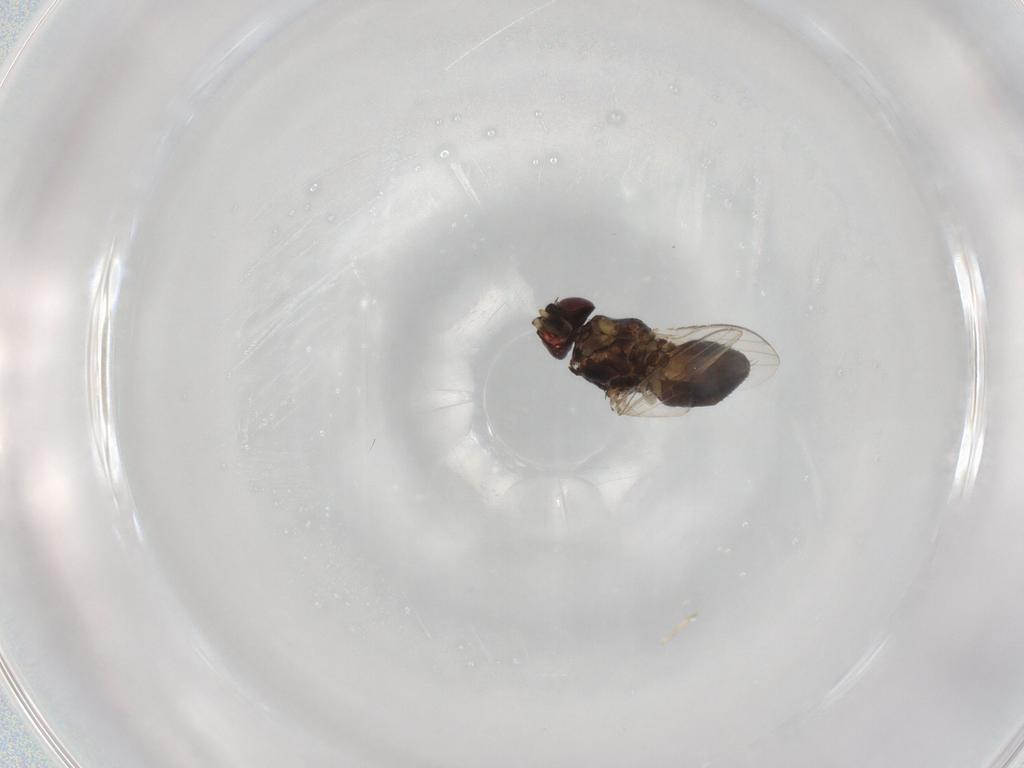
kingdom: Animalia
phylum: Arthropoda
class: Insecta
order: Diptera
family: Milichiidae
